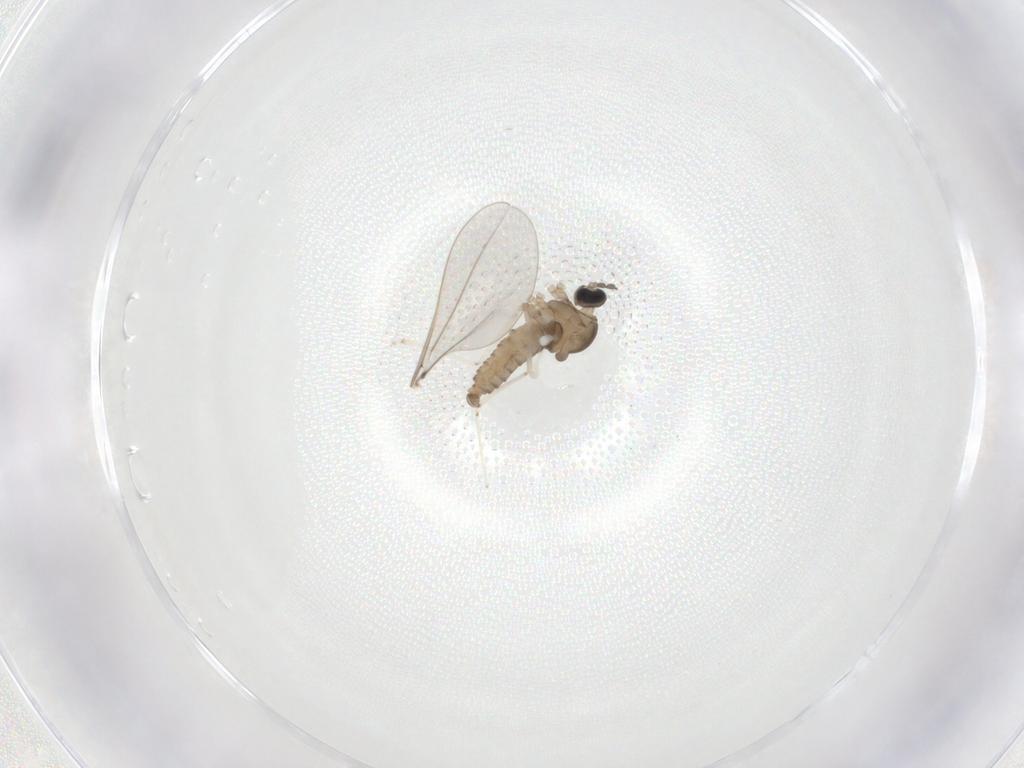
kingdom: Animalia
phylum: Arthropoda
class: Insecta
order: Diptera
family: Cecidomyiidae
